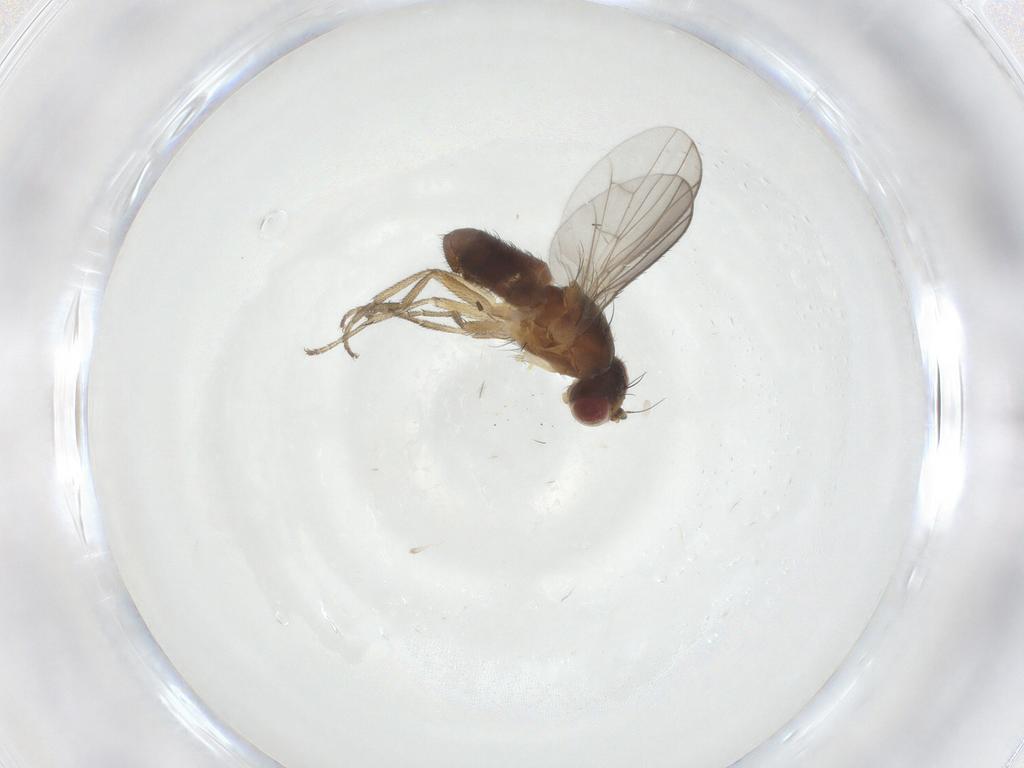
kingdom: Animalia
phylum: Arthropoda
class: Insecta
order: Diptera
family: Heleomyzidae
